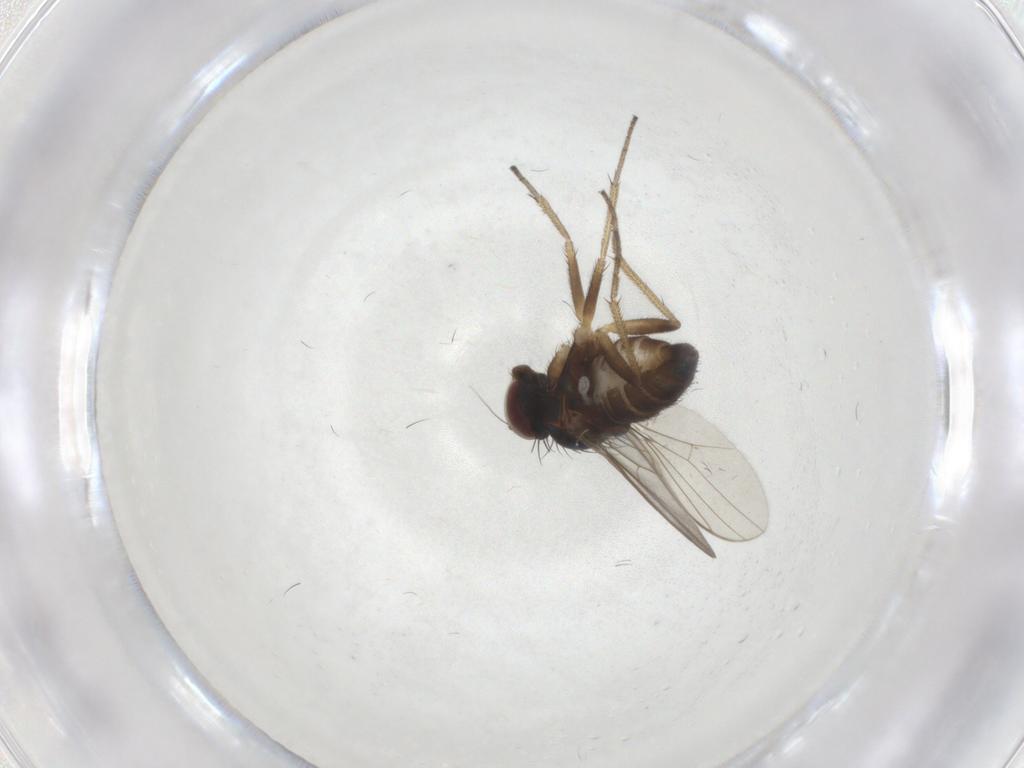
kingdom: Animalia
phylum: Arthropoda
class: Insecta
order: Diptera
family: Dolichopodidae
